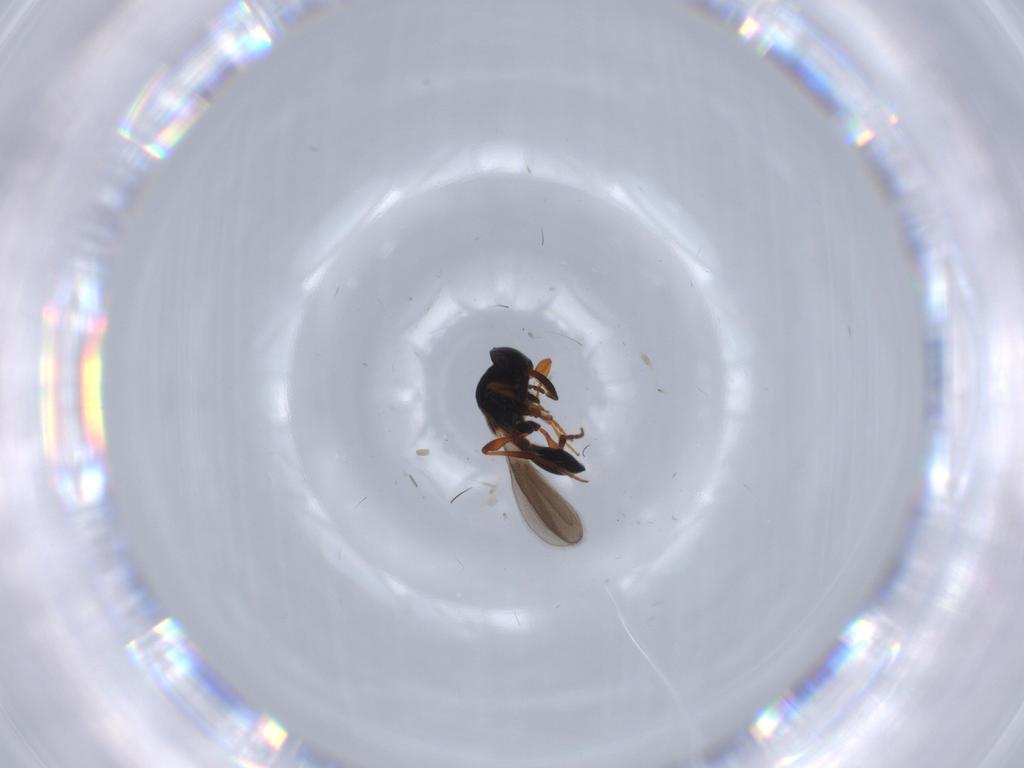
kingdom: Animalia
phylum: Arthropoda
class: Insecta
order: Hymenoptera
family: Platygastridae
